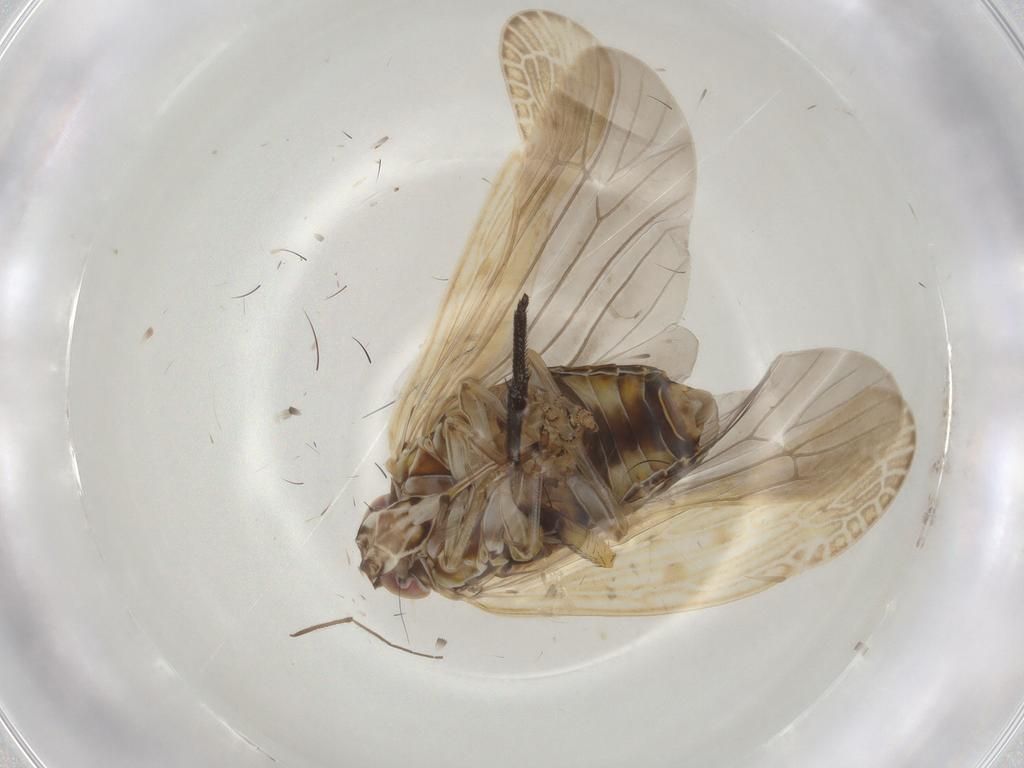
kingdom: Animalia
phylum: Arthropoda
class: Insecta
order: Hemiptera
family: Achilidae
